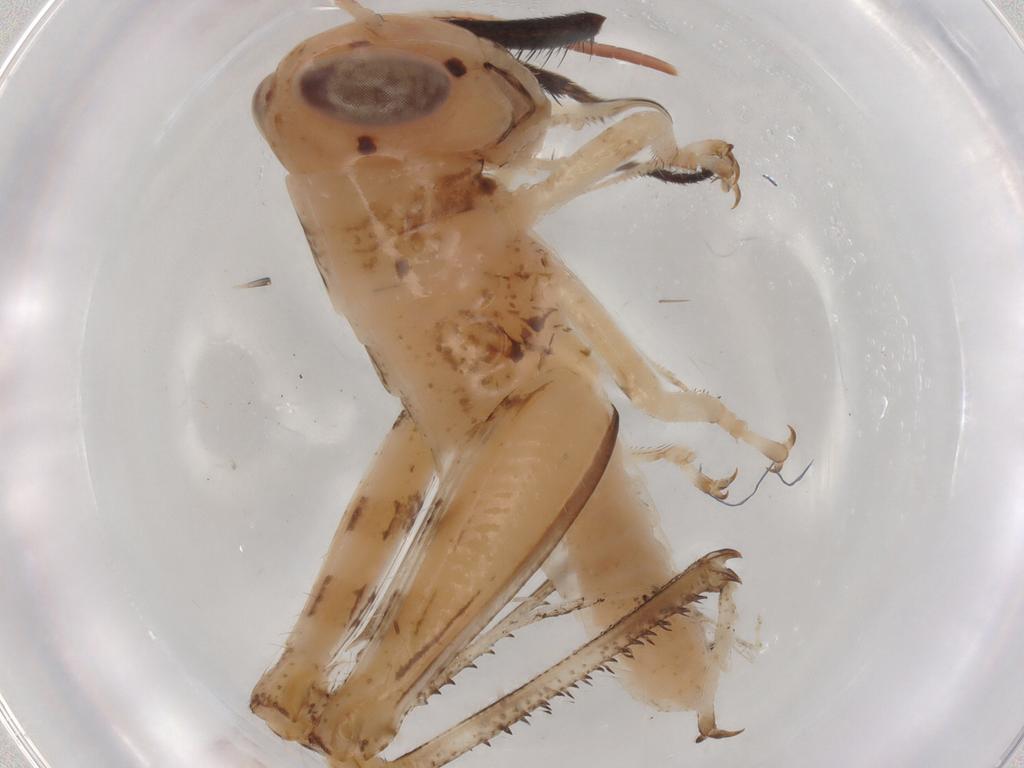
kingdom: Animalia
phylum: Arthropoda
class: Insecta
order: Orthoptera
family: Acrididae
